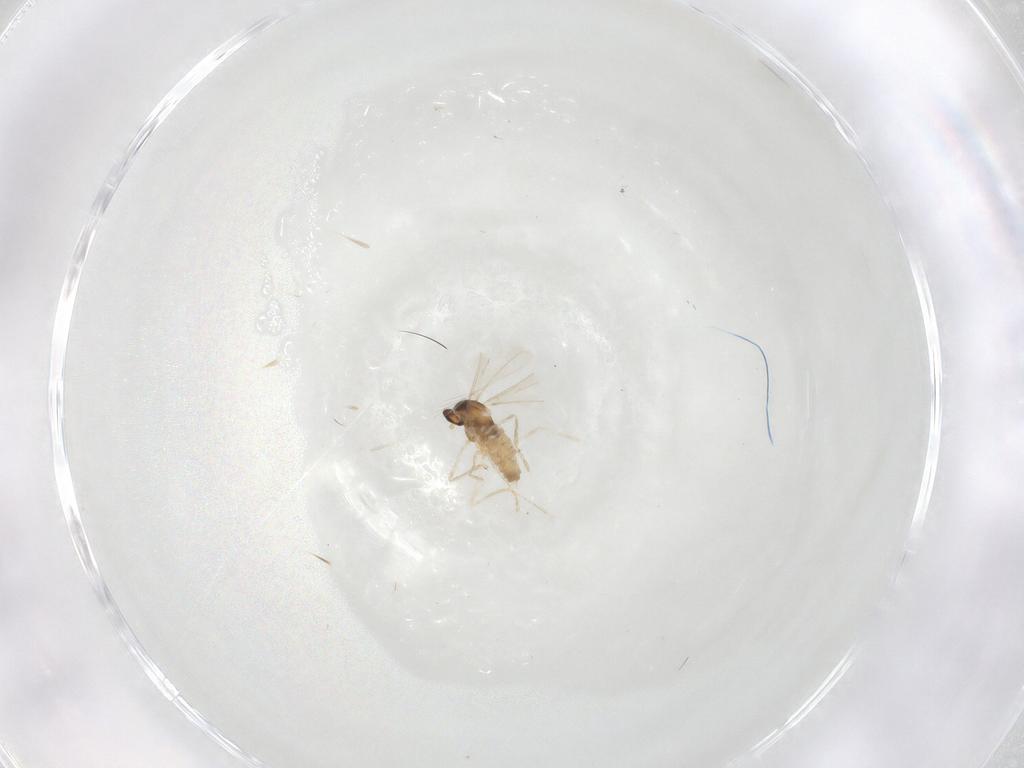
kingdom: Animalia
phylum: Arthropoda
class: Insecta
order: Diptera
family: Cecidomyiidae
